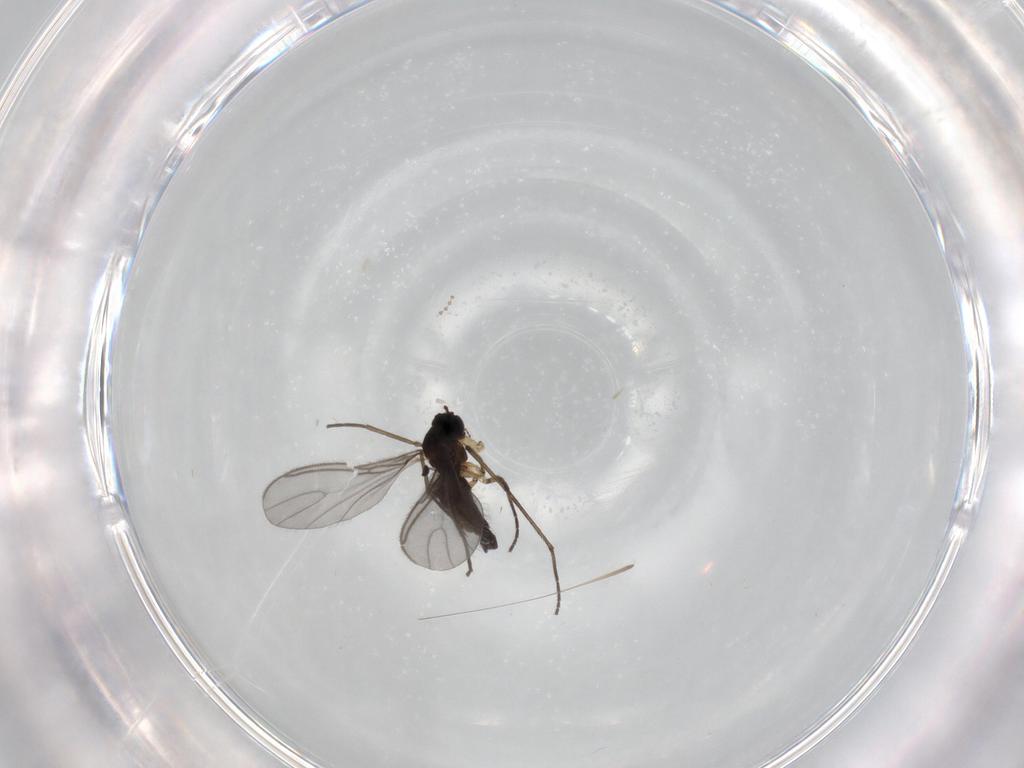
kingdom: Animalia
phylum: Arthropoda
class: Insecta
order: Diptera
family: Sciaridae
